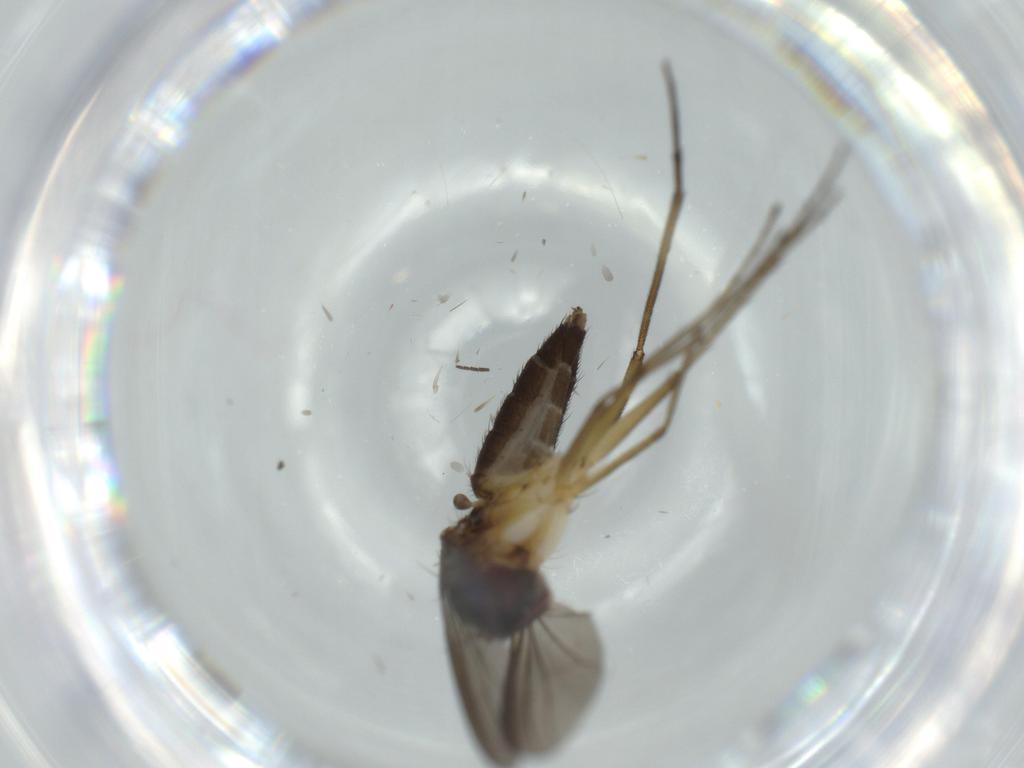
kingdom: Animalia
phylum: Arthropoda
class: Insecta
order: Diptera
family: Dolichopodidae
